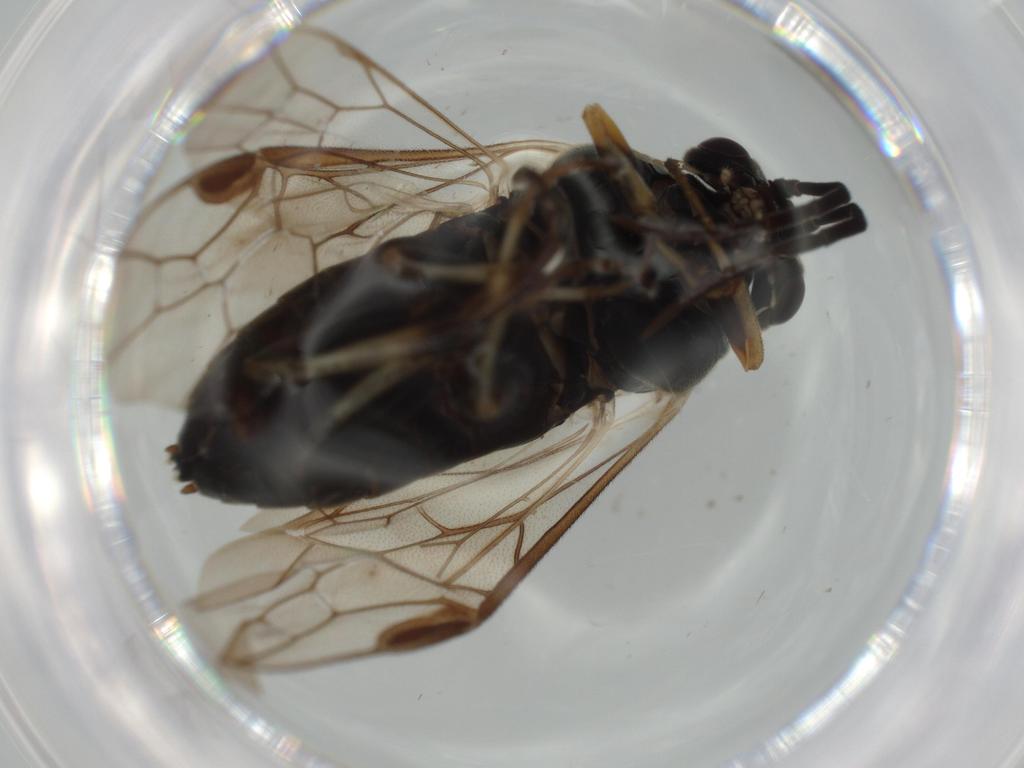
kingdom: Animalia
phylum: Arthropoda
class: Insecta
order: Hymenoptera
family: Tenthredinidae
